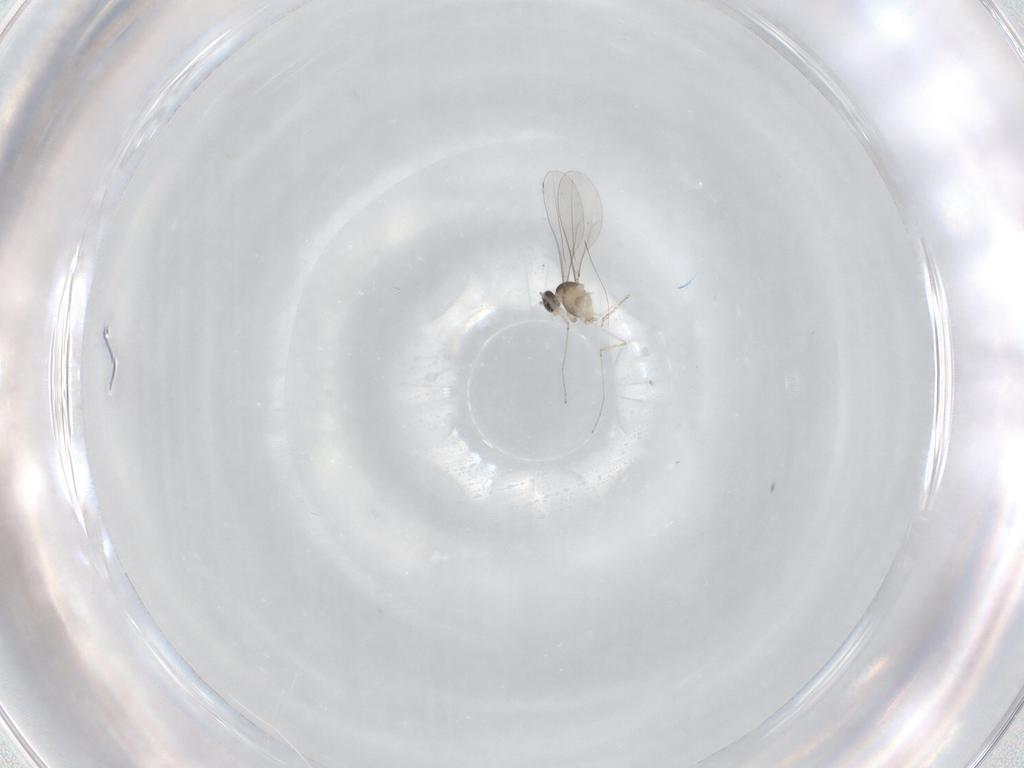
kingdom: Animalia
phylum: Arthropoda
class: Insecta
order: Diptera
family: Cecidomyiidae
